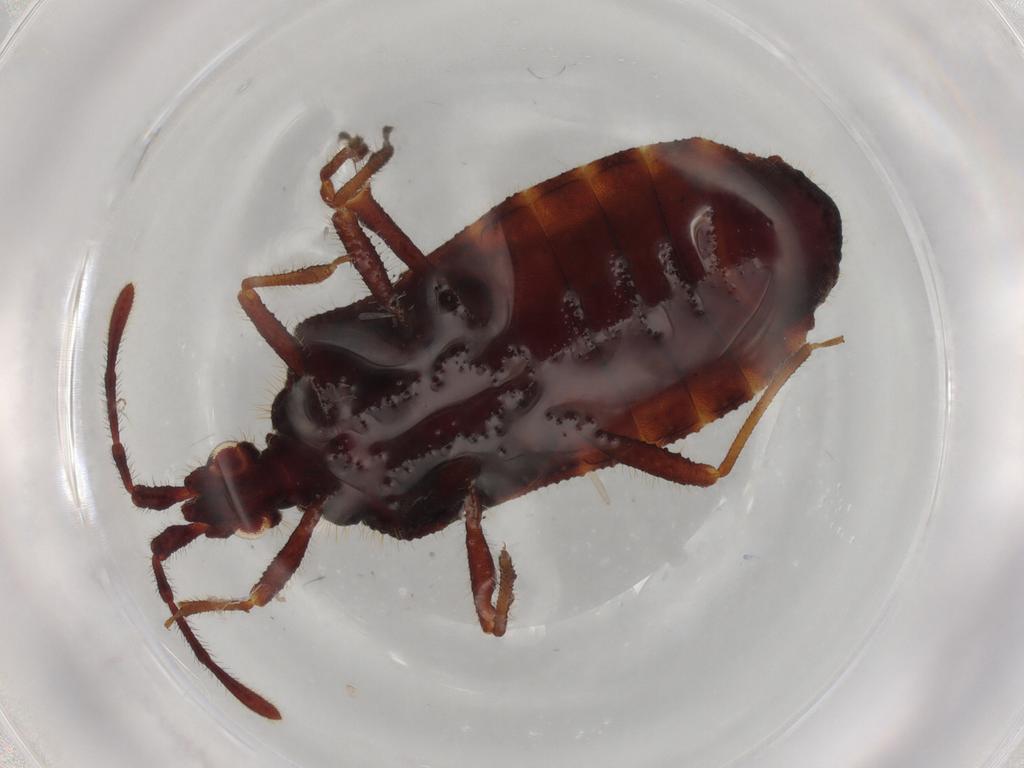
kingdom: Animalia
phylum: Arthropoda
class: Insecta
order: Hemiptera
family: Aradidae
